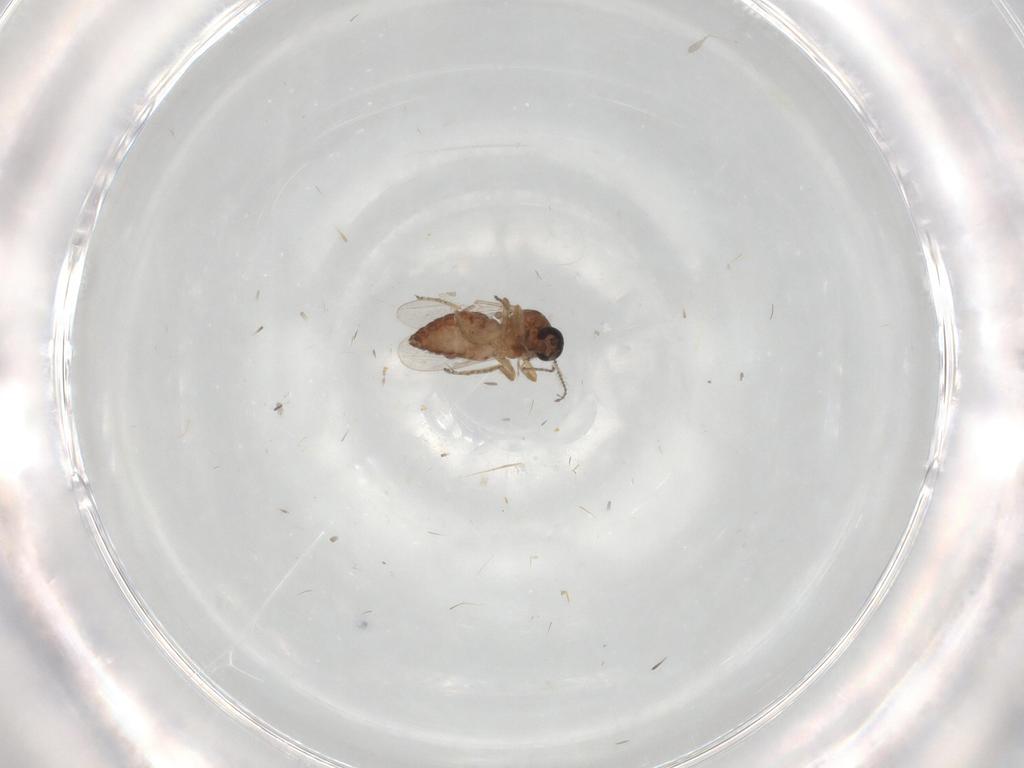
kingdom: Animalia
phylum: Arthropoda
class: Insecta
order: Diptera
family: Ceratopogonidae
